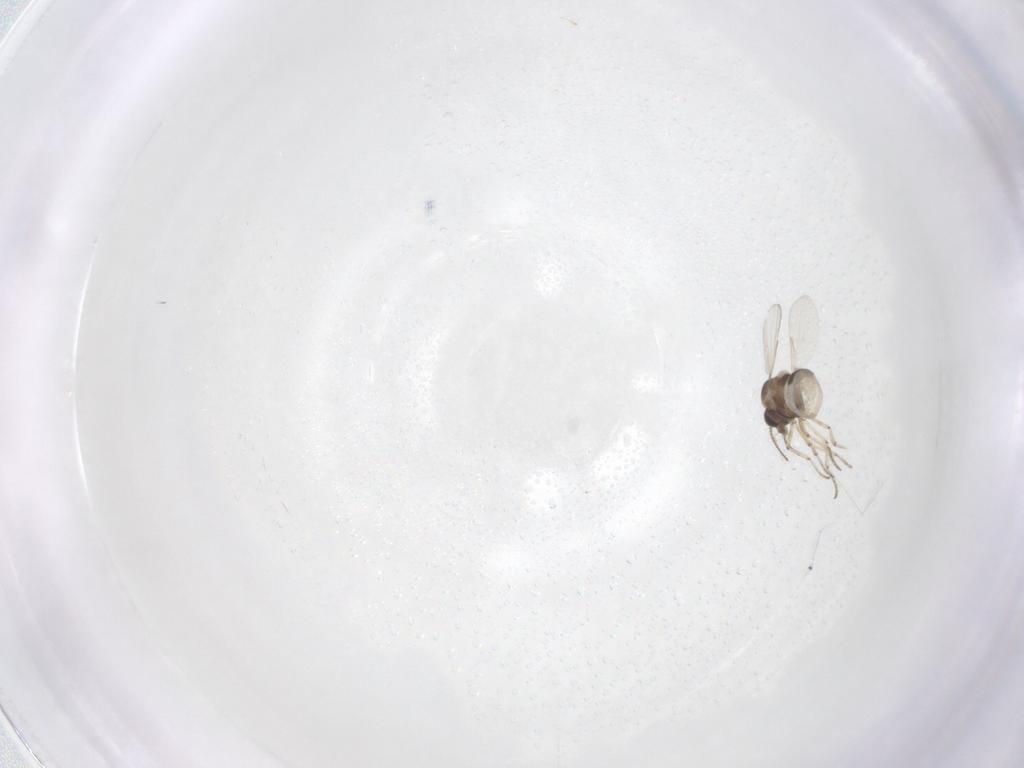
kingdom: Animalia
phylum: Arthropoda
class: Insecta
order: Diptera
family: Ceratopogonidae
